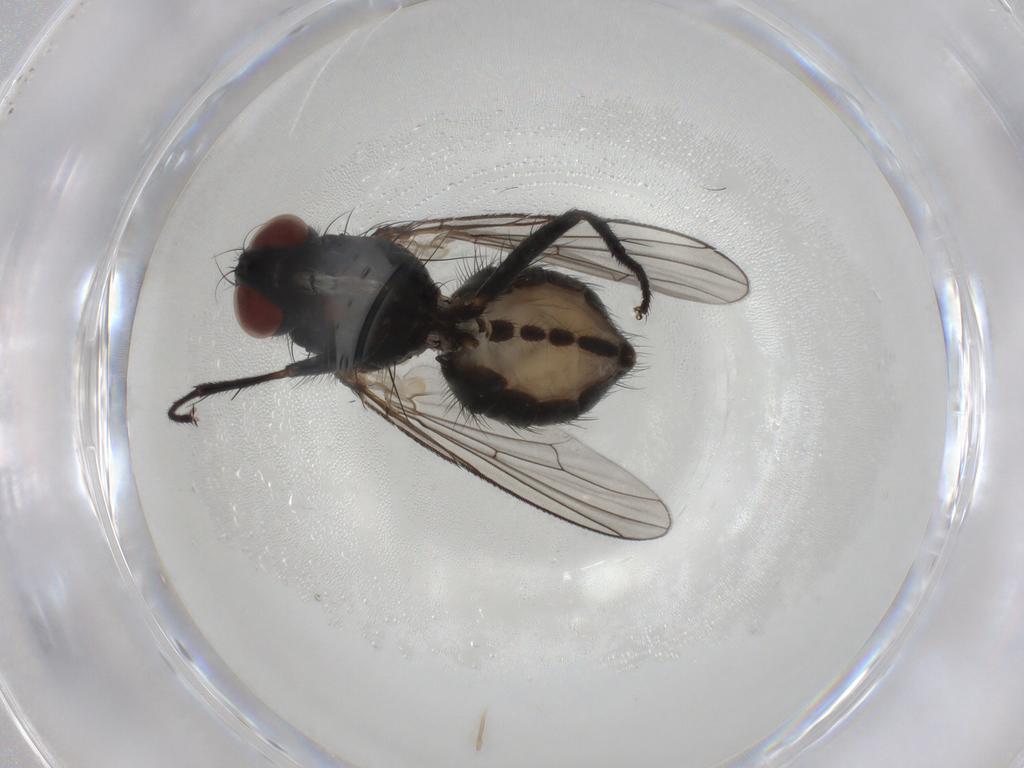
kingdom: Animalia
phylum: Arthropoda
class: Insecta
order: Diptera
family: Muscidae
